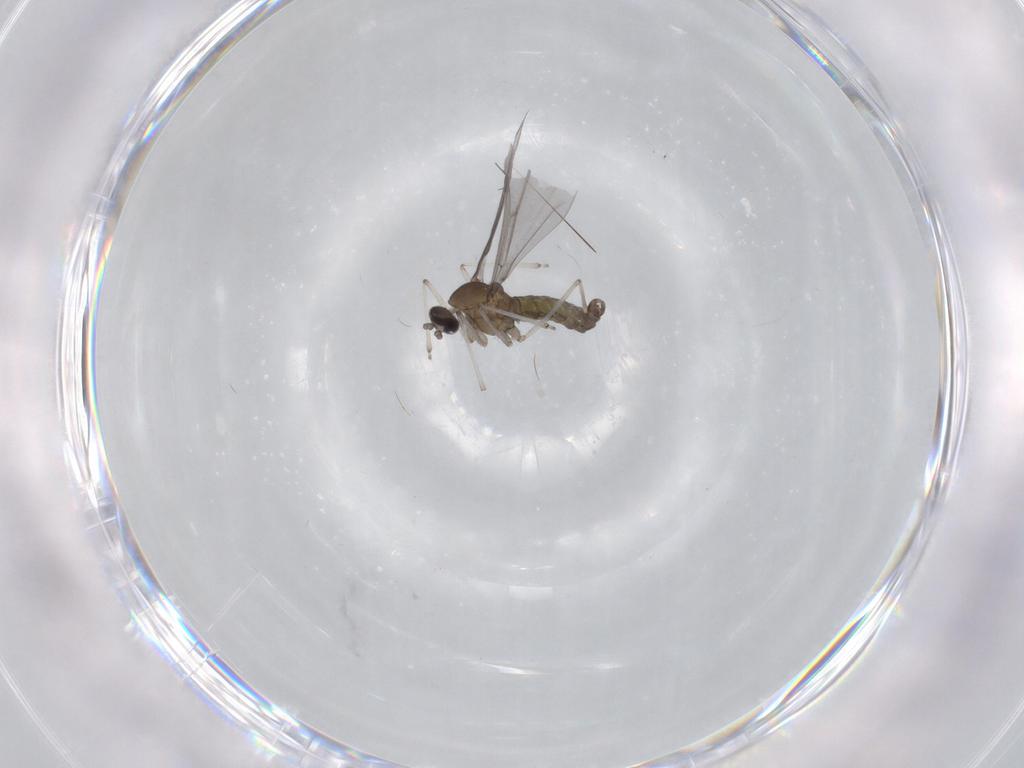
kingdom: Animalia
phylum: Arthropoda
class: Insecta
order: Diptera
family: Cecidomyiidae
